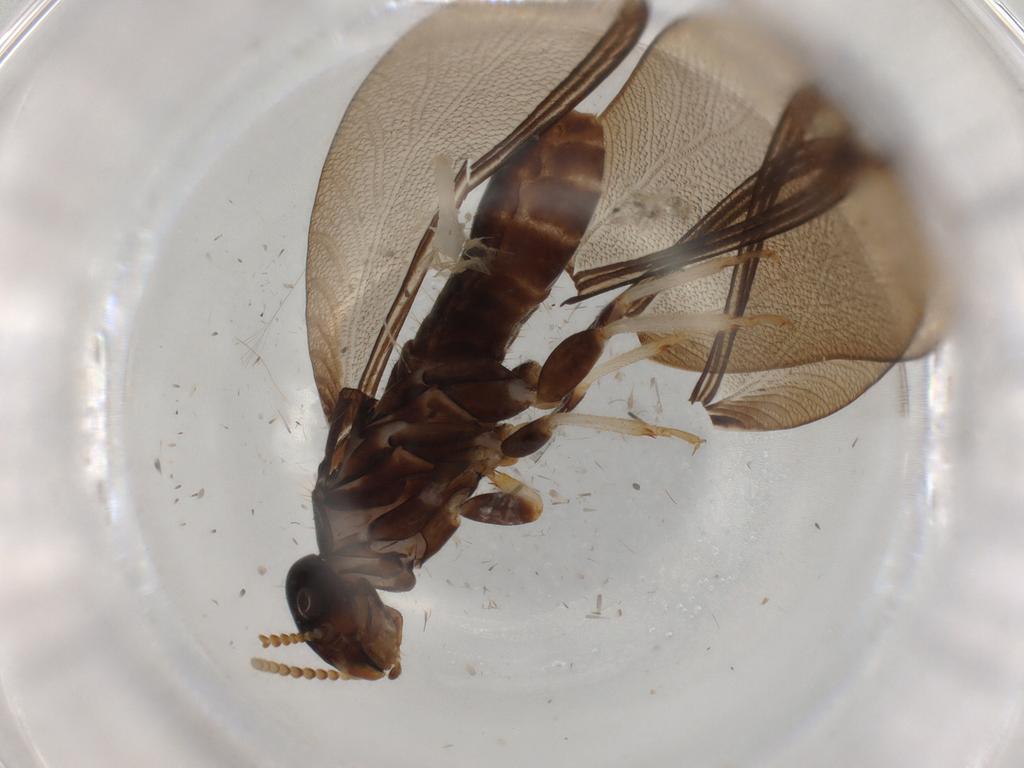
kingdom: Animalia
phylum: Arthropoda
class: Insecta
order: Blattodea
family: Kalotermitidae
